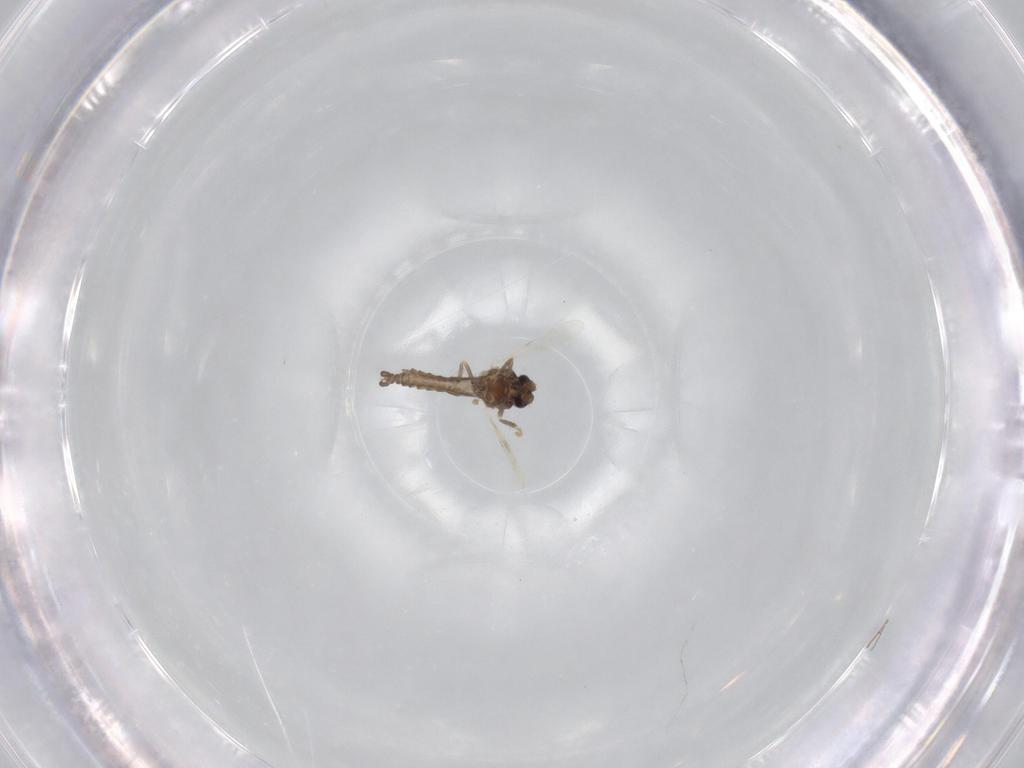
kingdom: Animalia
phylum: Arthropoda
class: Insecta
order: Diptera
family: Ceratopogonidae
